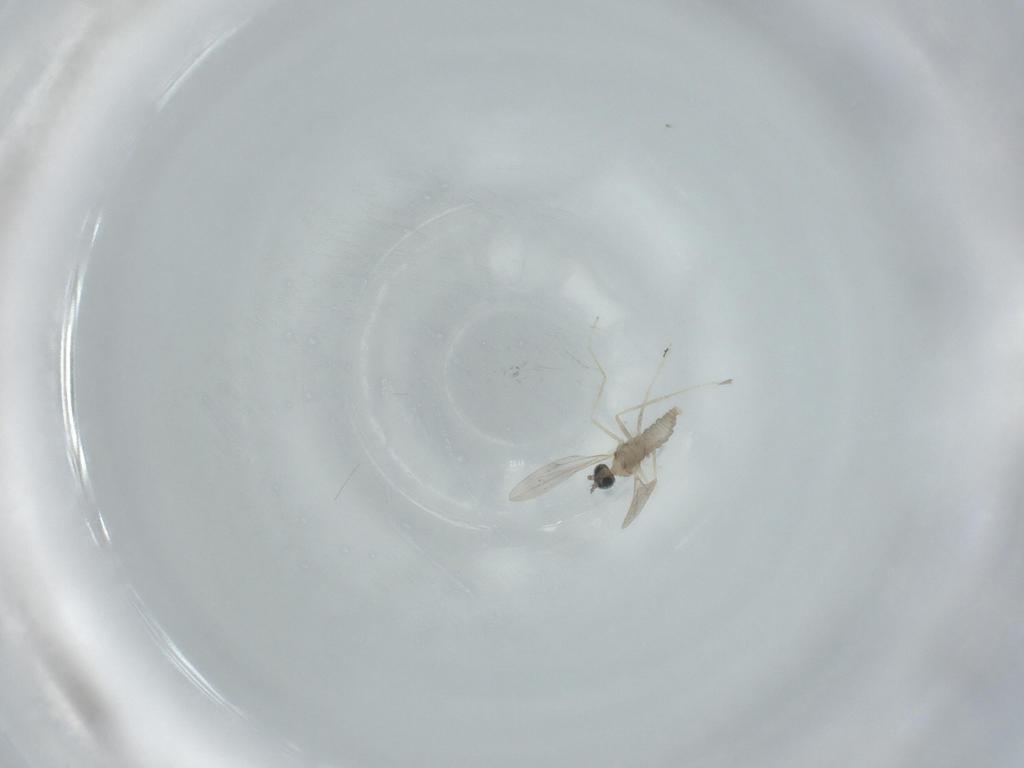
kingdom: Animalia
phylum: Arthropoda
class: Insecta
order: Diptera
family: Cecidomyiidae
